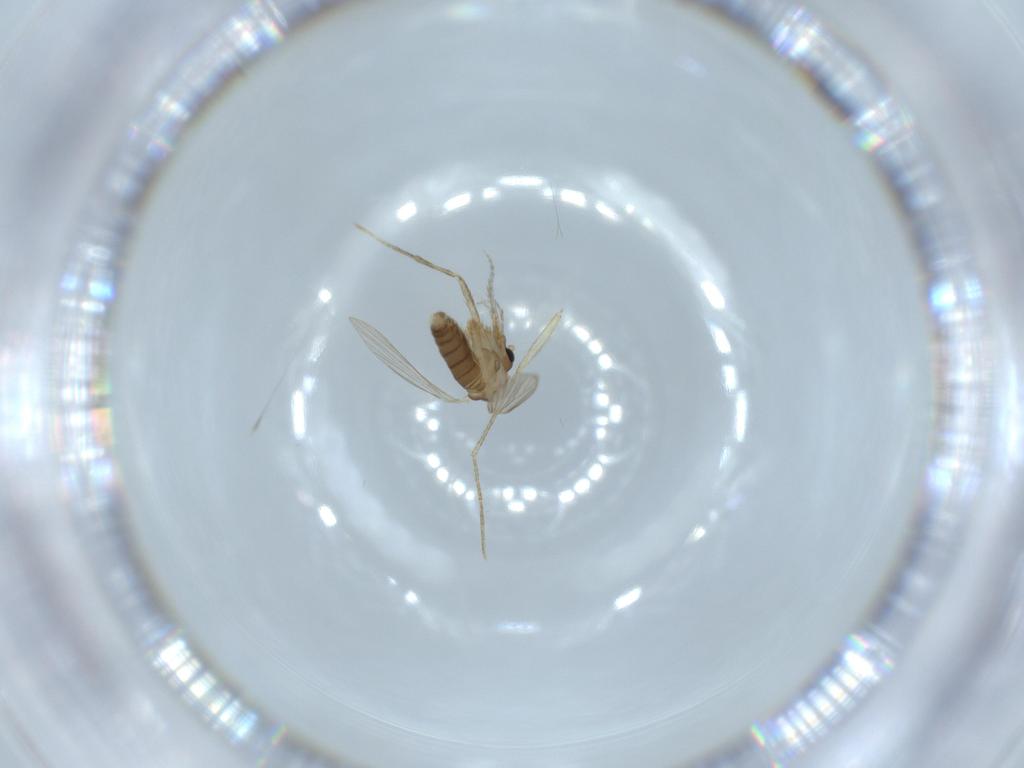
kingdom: Animalia
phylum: Arthropoda
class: Insecta
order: Diptera
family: Psychodidae
